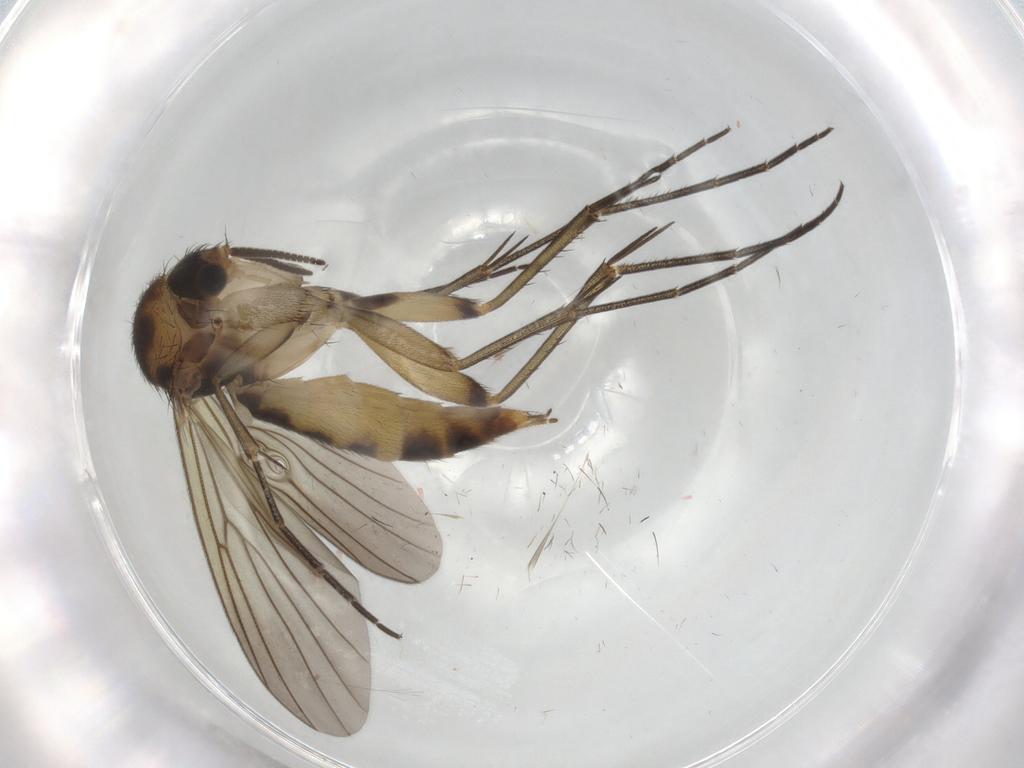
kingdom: Animalia
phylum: Arthropoda
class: Insecta
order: Diptera
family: Mycetophilidae
